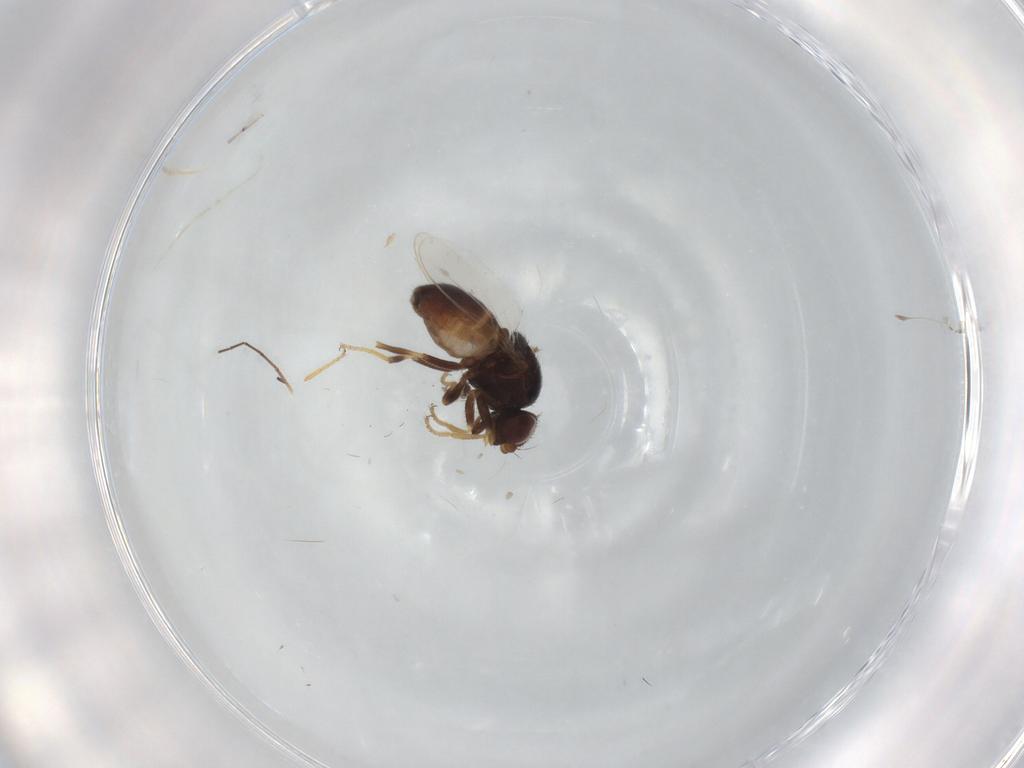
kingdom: Animalia
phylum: Arthropoda
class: Insecta
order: Diptera
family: Chloropidae
